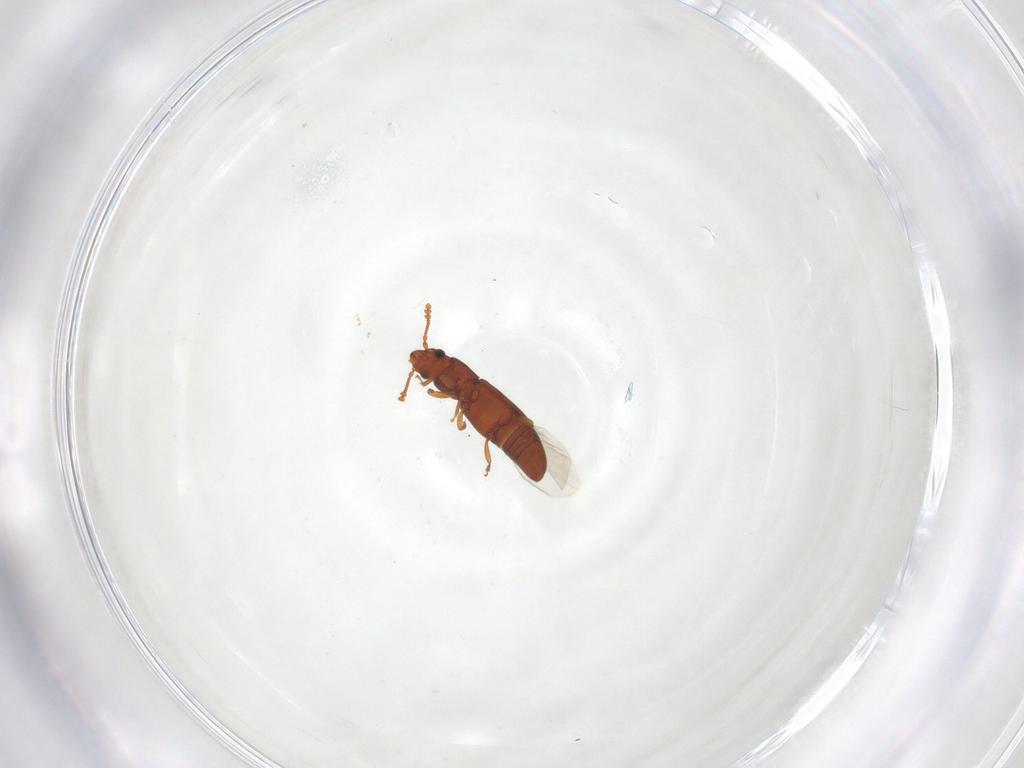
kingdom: Animalia
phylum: Arthropoda
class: Insecta
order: Coleoptera
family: Smicripidae
